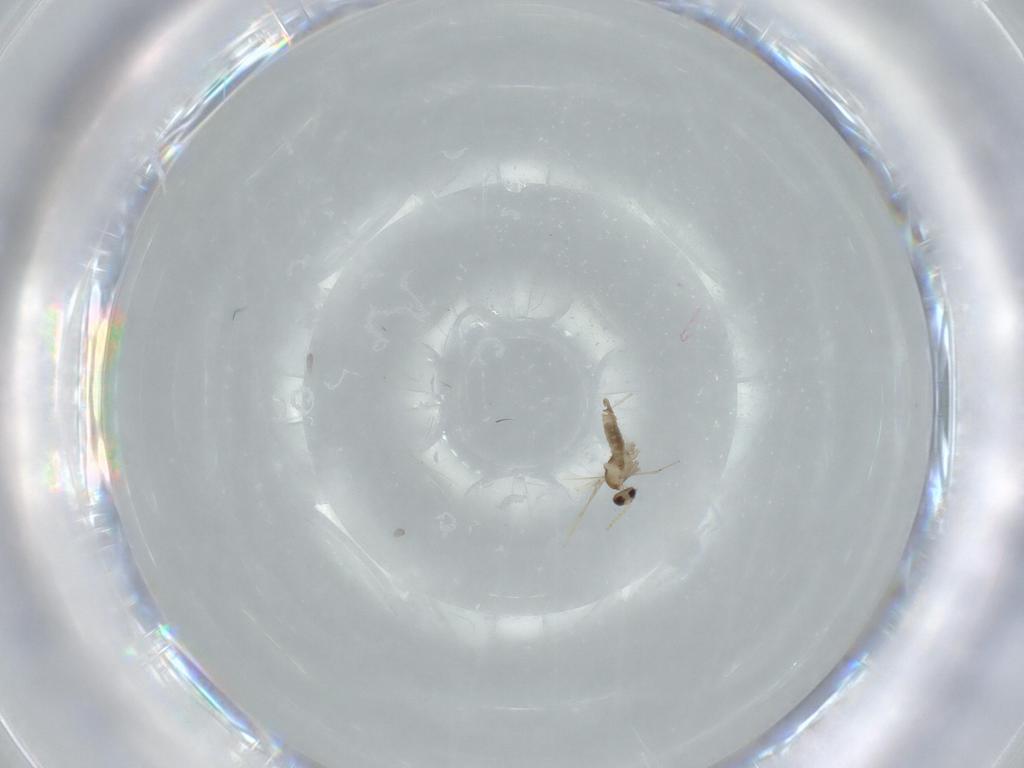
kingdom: Animalia
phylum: Arthropoda
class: Insecta
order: Diptera
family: Cecidomyiidae
